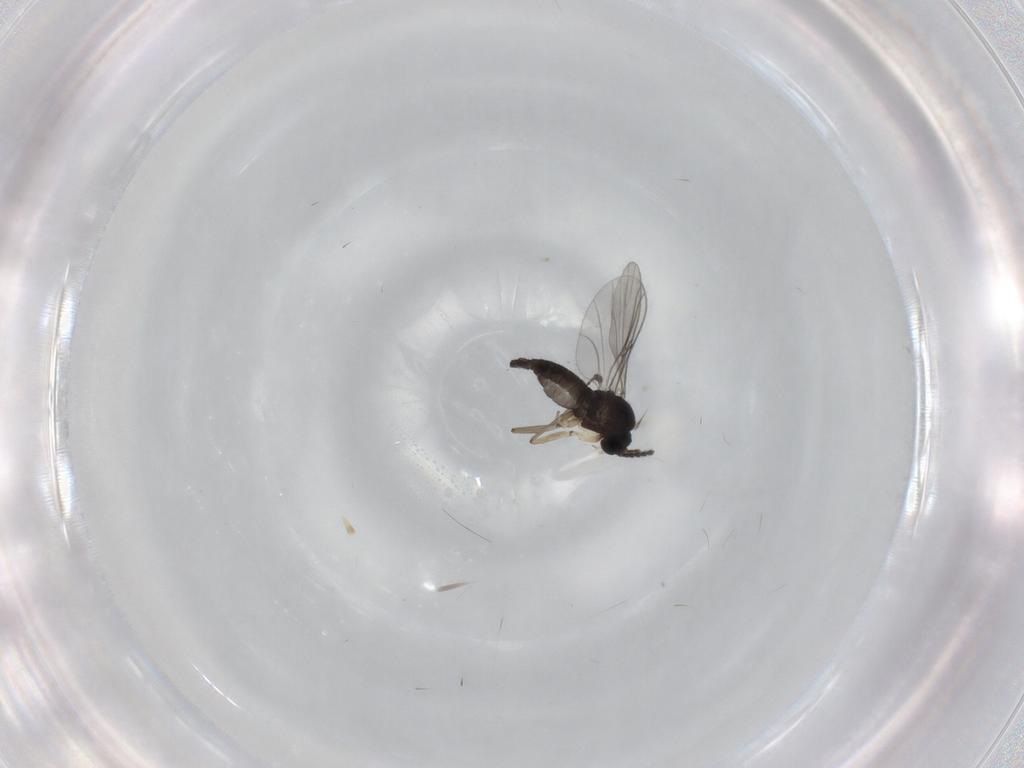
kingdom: Animalia
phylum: Arthropoda
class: Insecta
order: Diptera
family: Sciaridae
